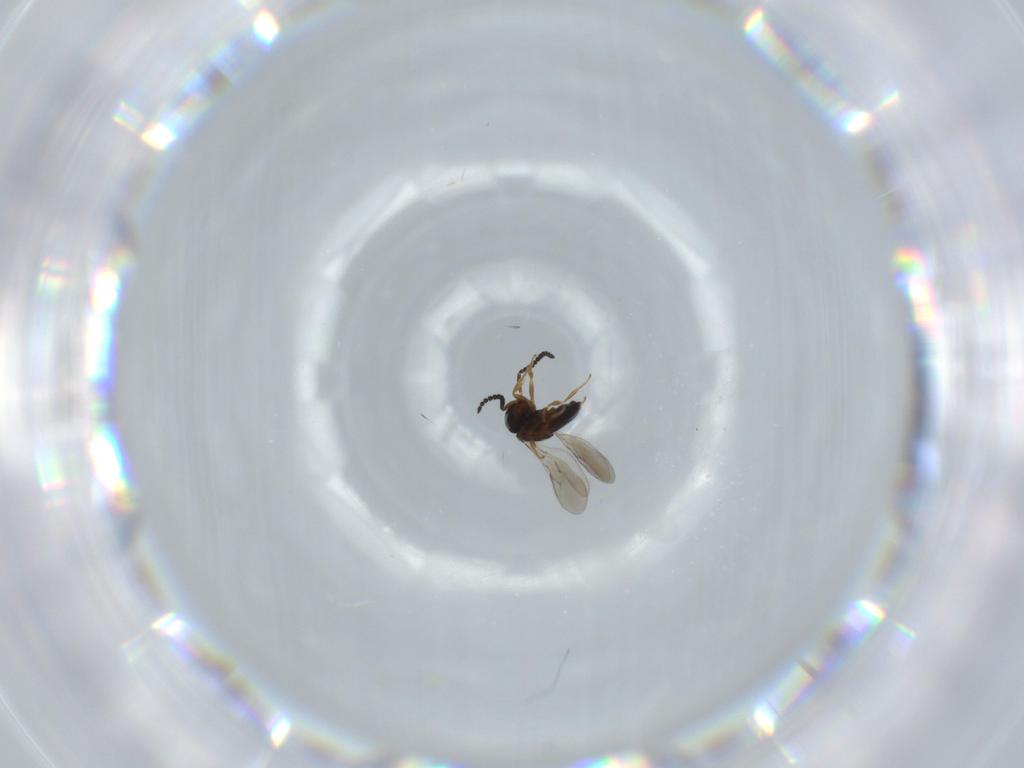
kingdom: Animalia
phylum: Arthropoda
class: Insecta
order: Hymenoptera
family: Scelionidae
